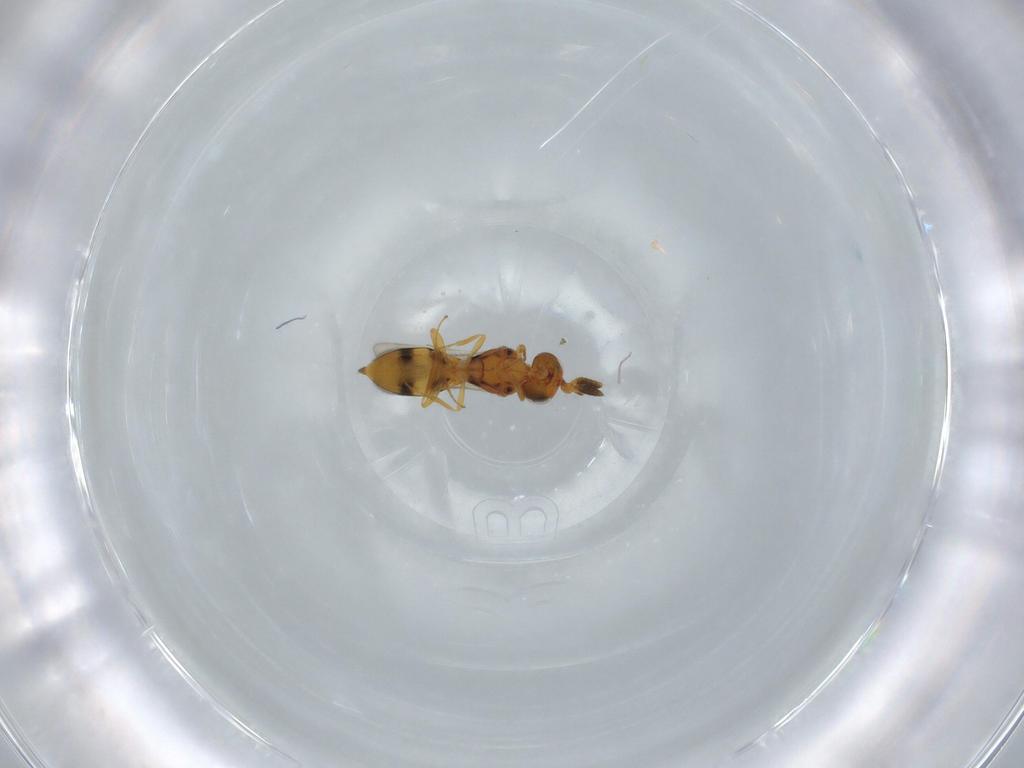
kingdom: Animalia
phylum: Arthropoda
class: Insecta
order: Hymenoptera
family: Scelionidae
